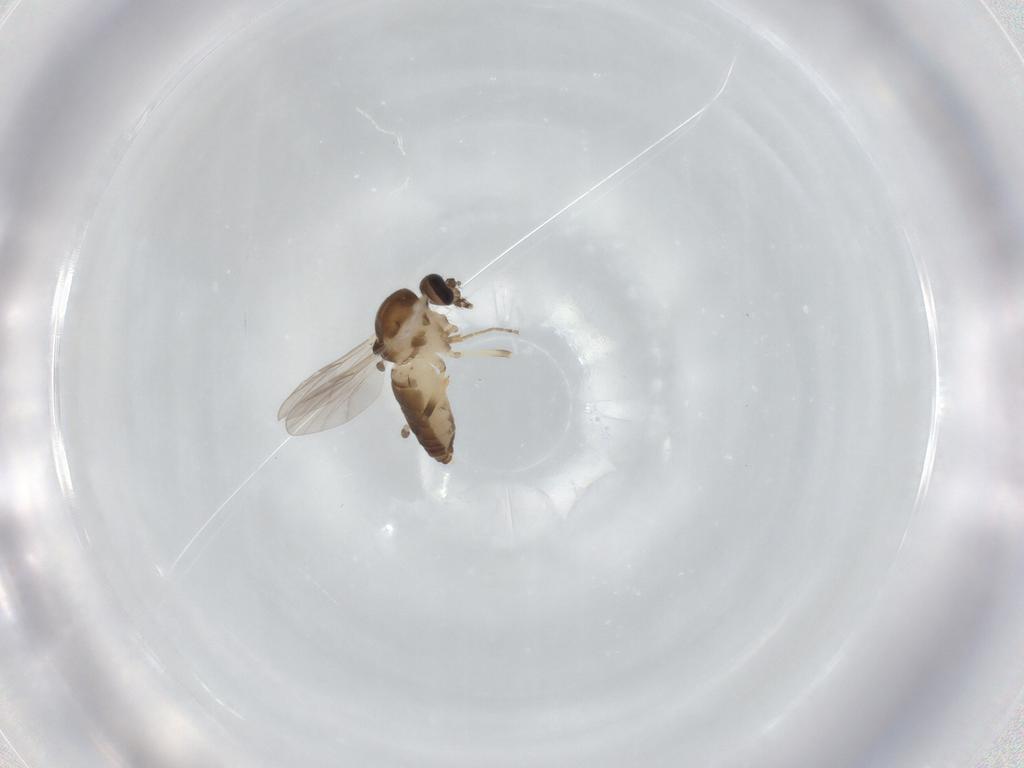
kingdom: Animalia
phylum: Arthropoda
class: Insecta
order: Diptera
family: Ceratopogonidae
